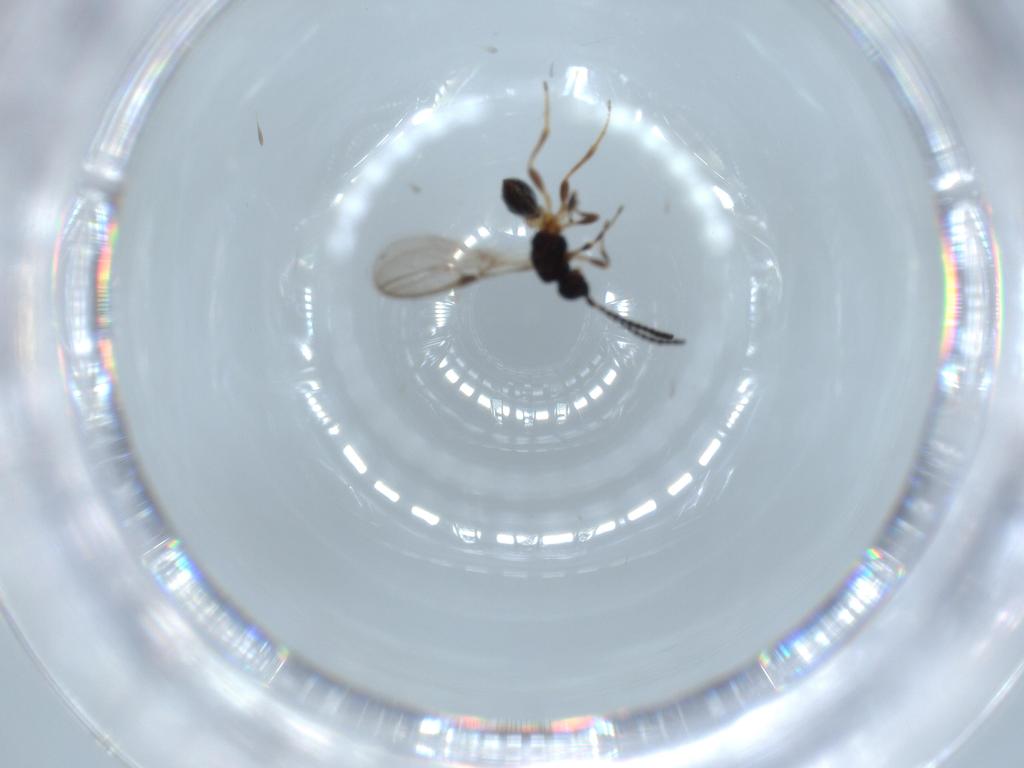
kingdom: Animalia
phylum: Arthropoda
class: Insecta
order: Hymenoptera
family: Braconidae
